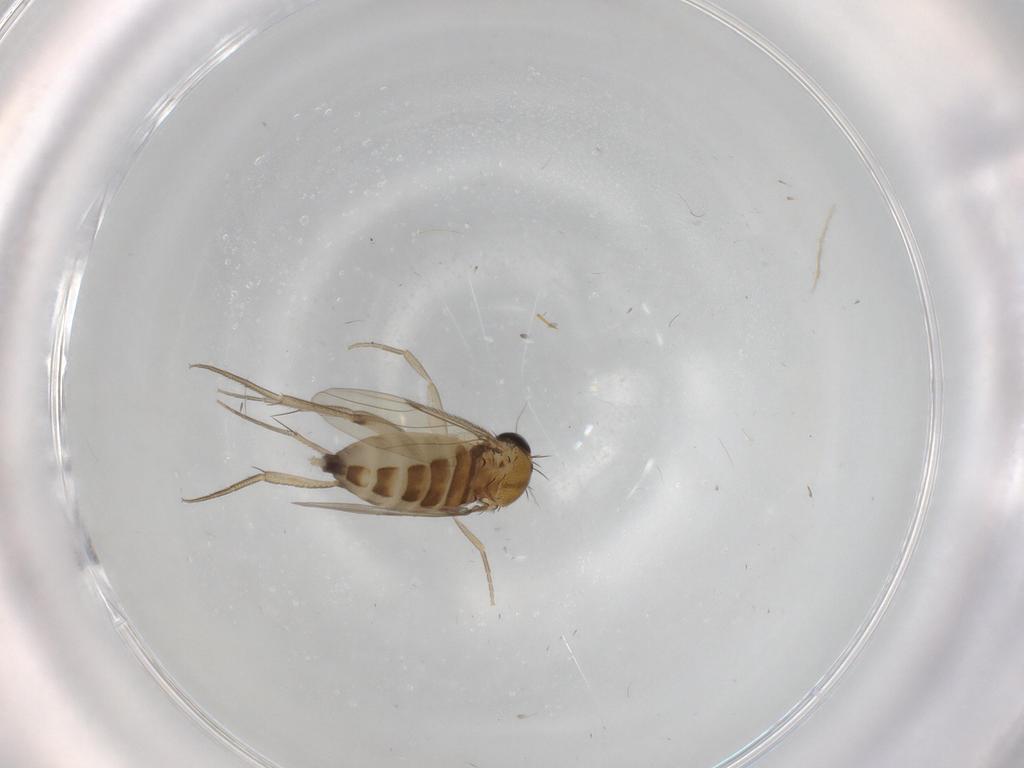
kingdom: Animalia
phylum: Arthropoda
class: Insecta
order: Diptera
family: Phoridae
